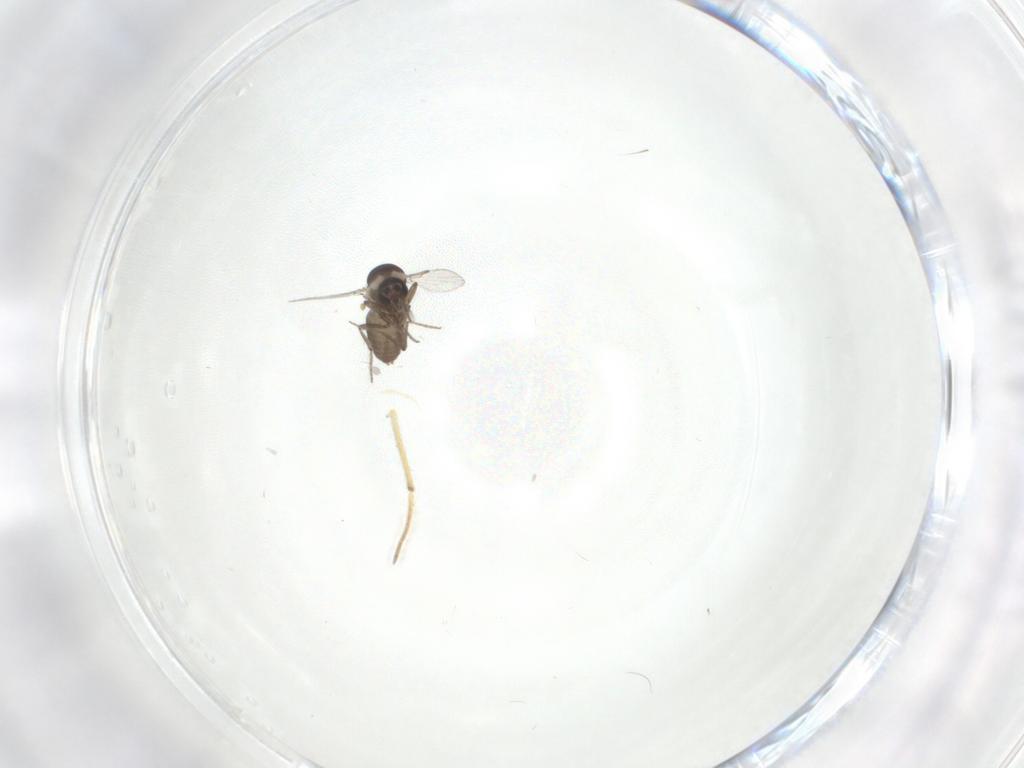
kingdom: Animalia
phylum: Arthropoda
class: Insecta
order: Diptera
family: Ceratopogonidae
